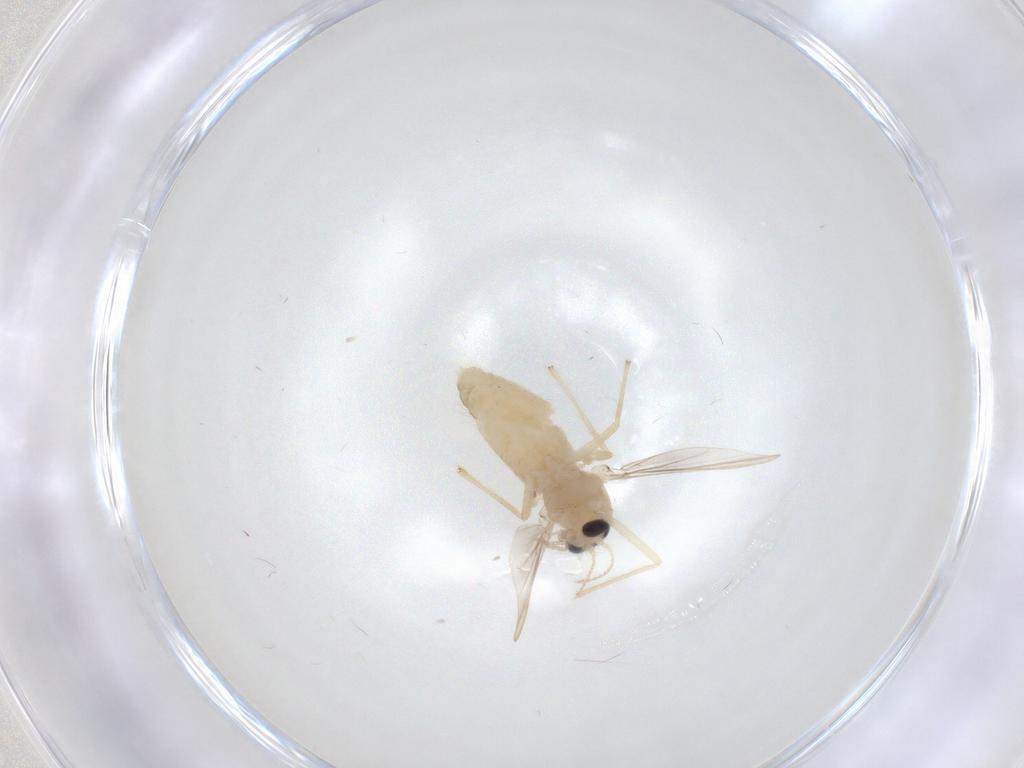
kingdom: Animalia
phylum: Arthropoda
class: Insecta
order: Diptera
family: Chironomidae
